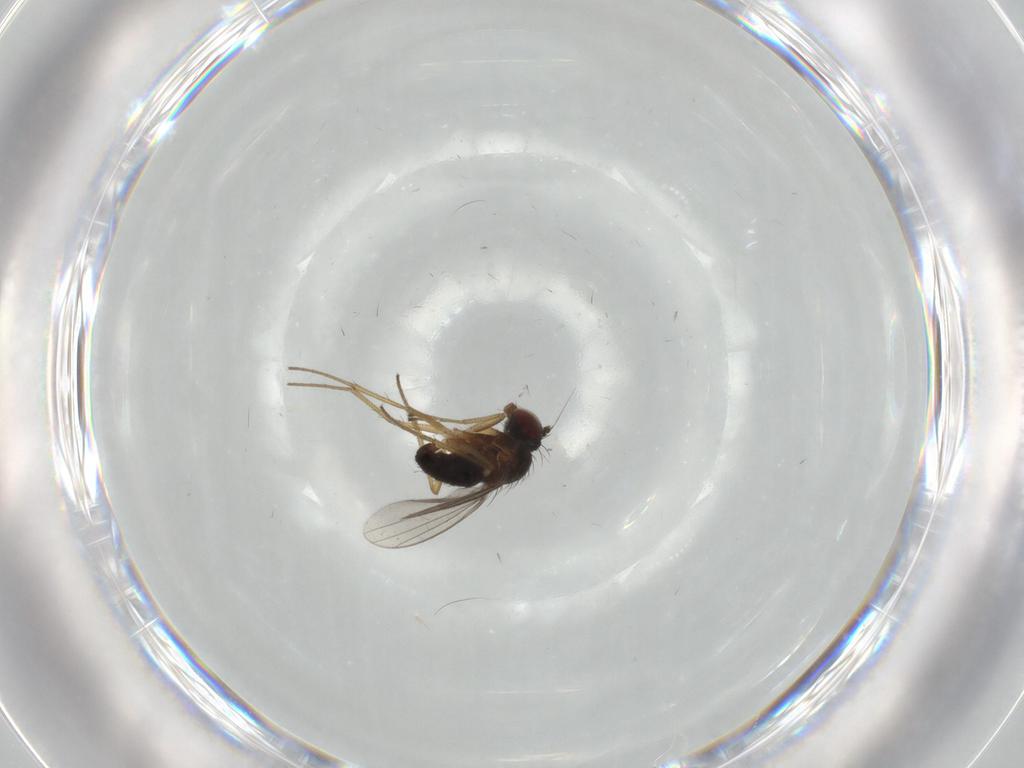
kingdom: Animalia
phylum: Arthropoda
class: Insecta
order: Diptera
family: Dolichopodidae
